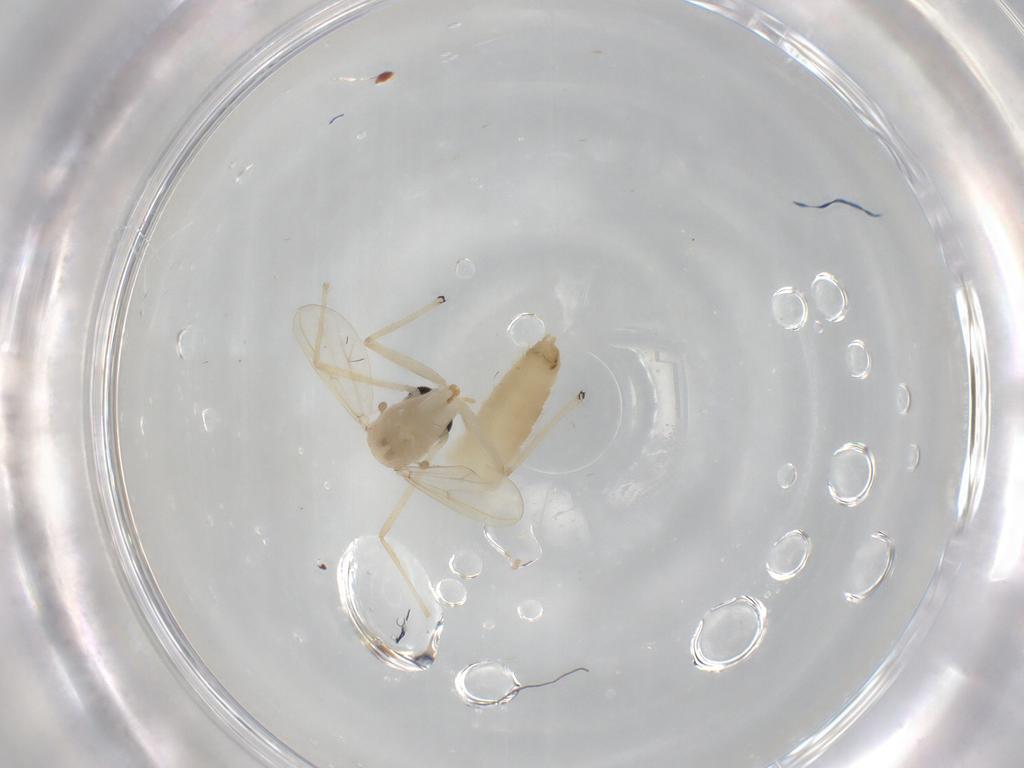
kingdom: Animalia
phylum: Arthropoda
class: Insecta
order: Diptera
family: Chironomidae
